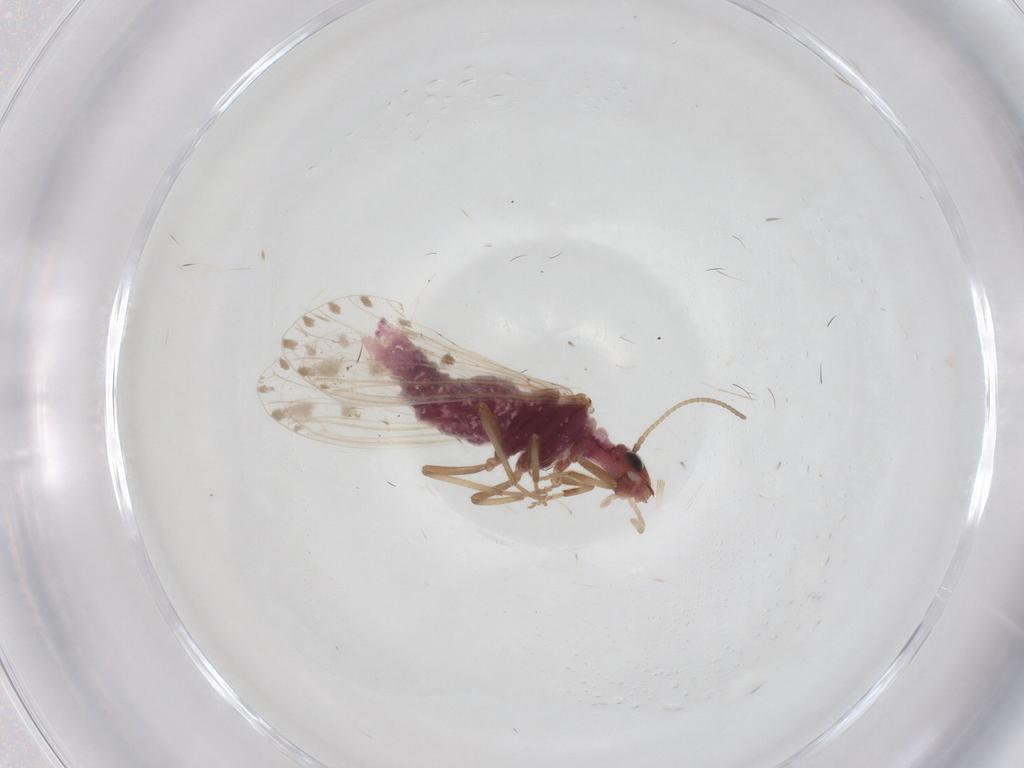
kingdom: Animalia
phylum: Arthropoda
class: Insecta
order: Neuroptera
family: Coniopterygidae
